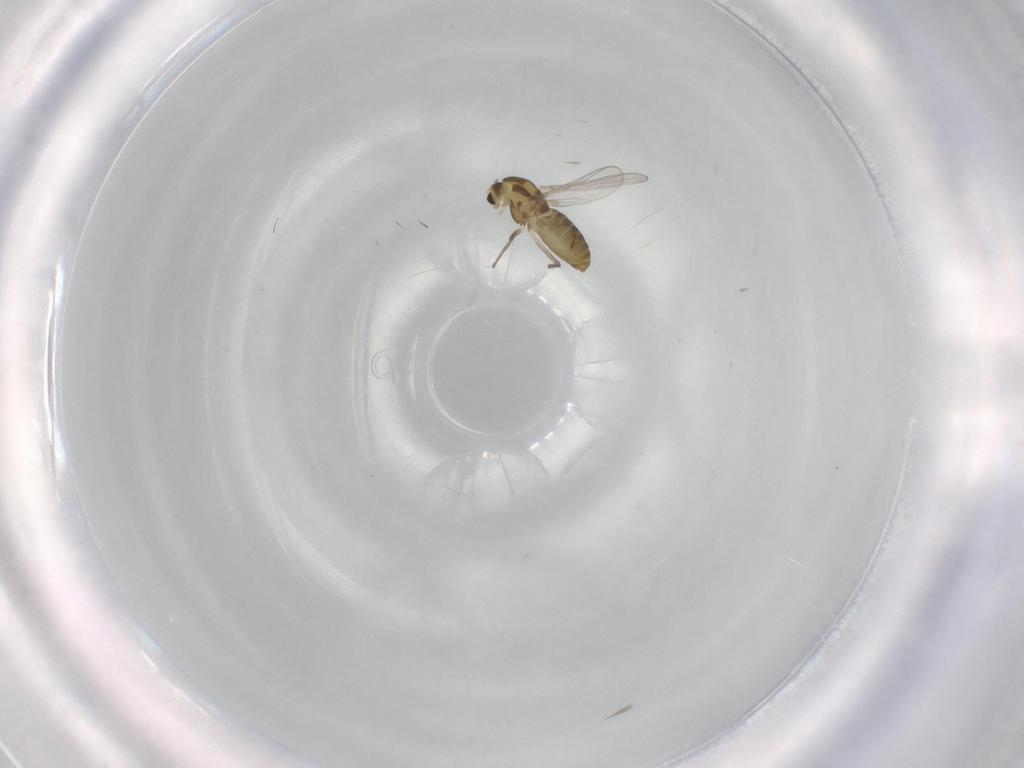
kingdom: Animalia
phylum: Arthropoda
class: Insecta
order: Diptera
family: Chironomidae
